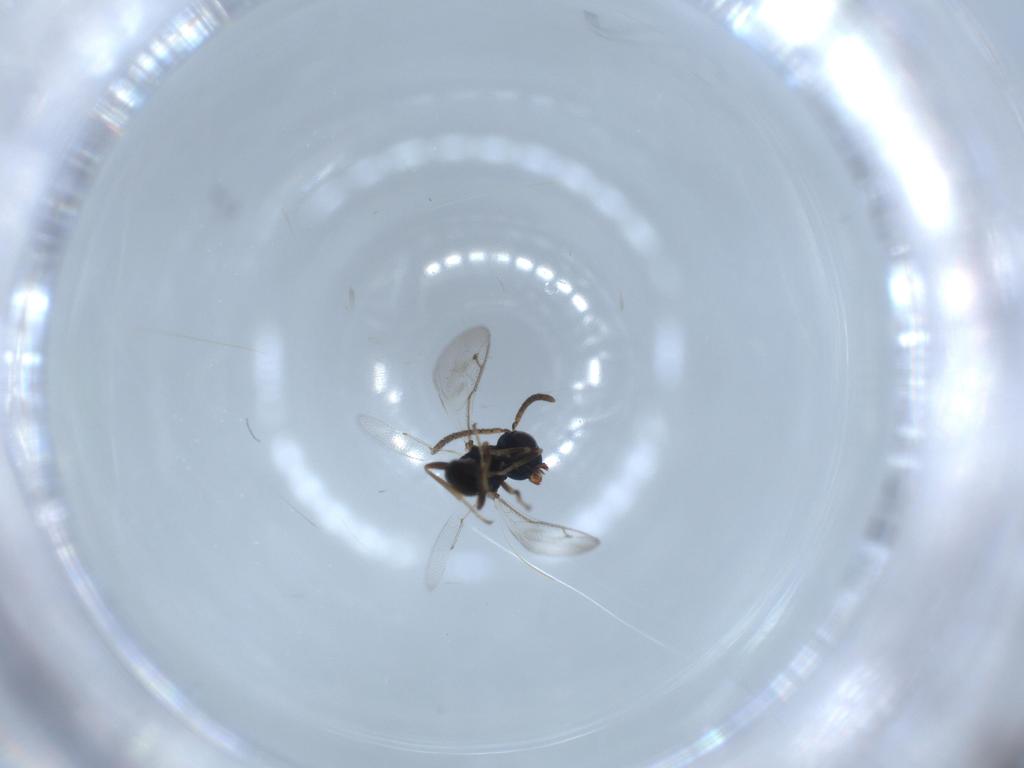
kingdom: Animalia
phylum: Arthropoda
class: Insecta
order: Hymenoptera
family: Pteromalidae
